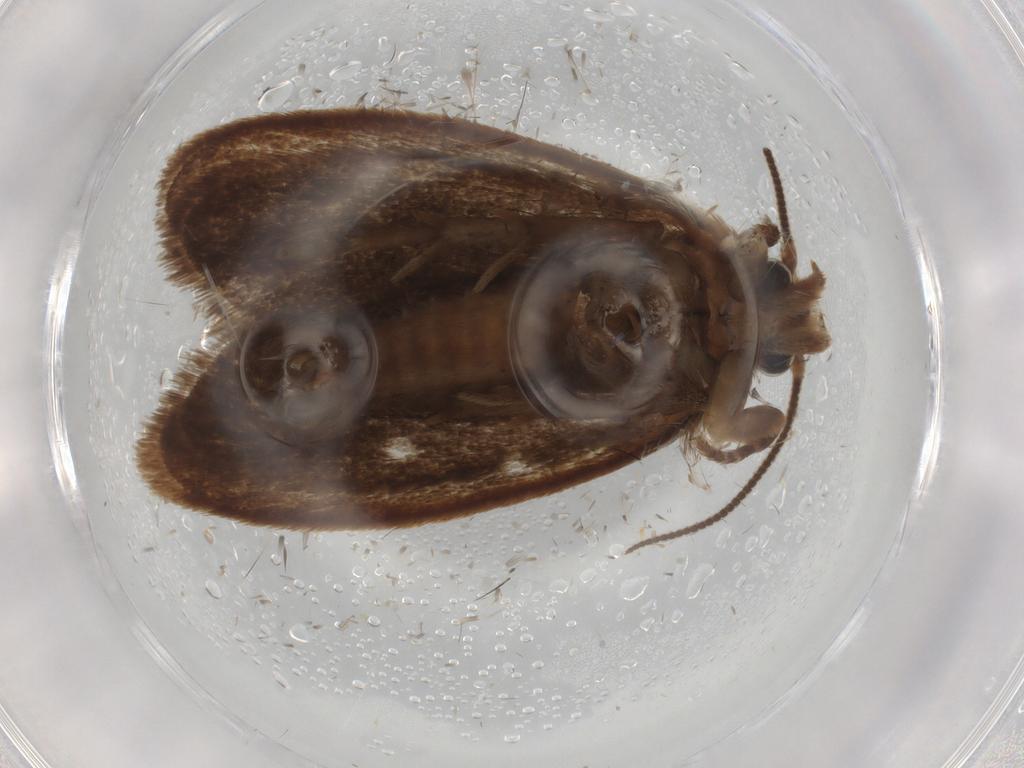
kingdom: Animalia
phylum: Arthropoda
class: Insecta
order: Lepidoptera
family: Tineidae
